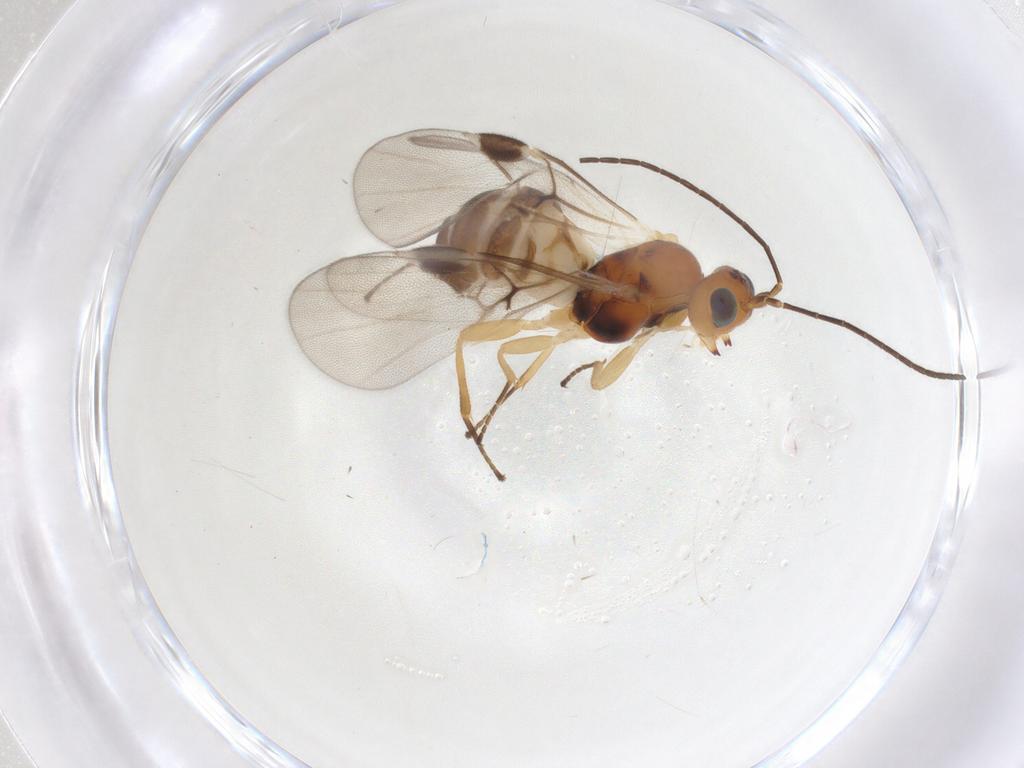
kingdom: Animalia
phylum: Arthropoda
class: Insecta
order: Hymenoptera
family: Braconidae
